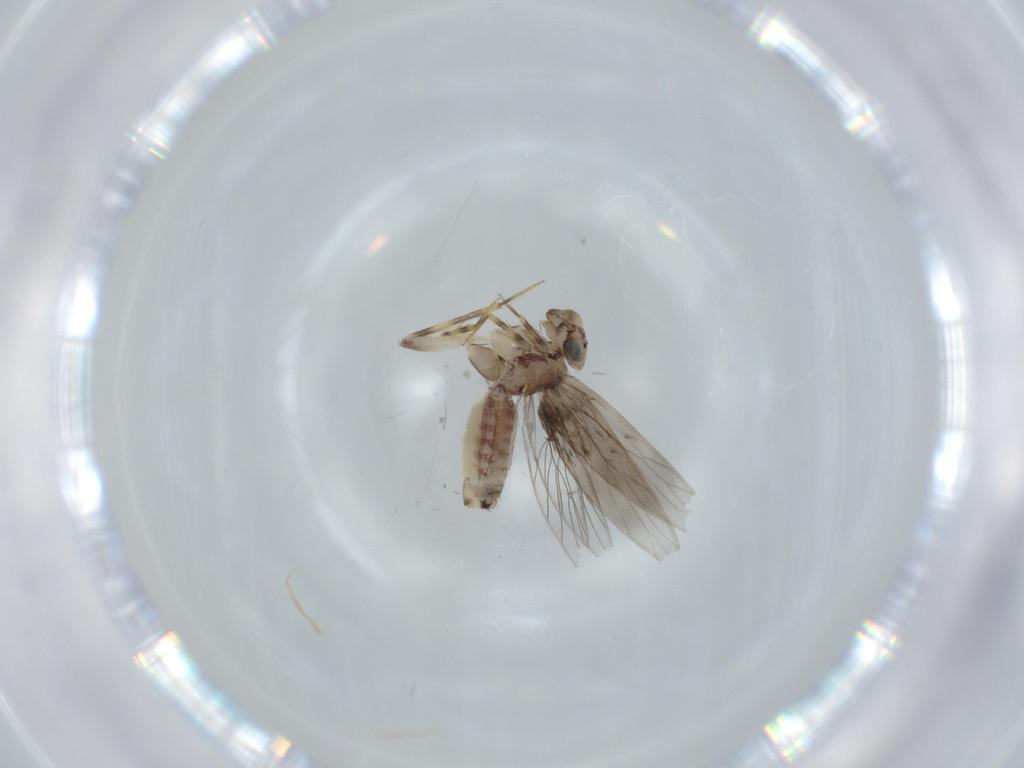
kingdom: Animalia
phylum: Arthropoda
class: Insecta
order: Psocodea
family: Lepidopsocidae
